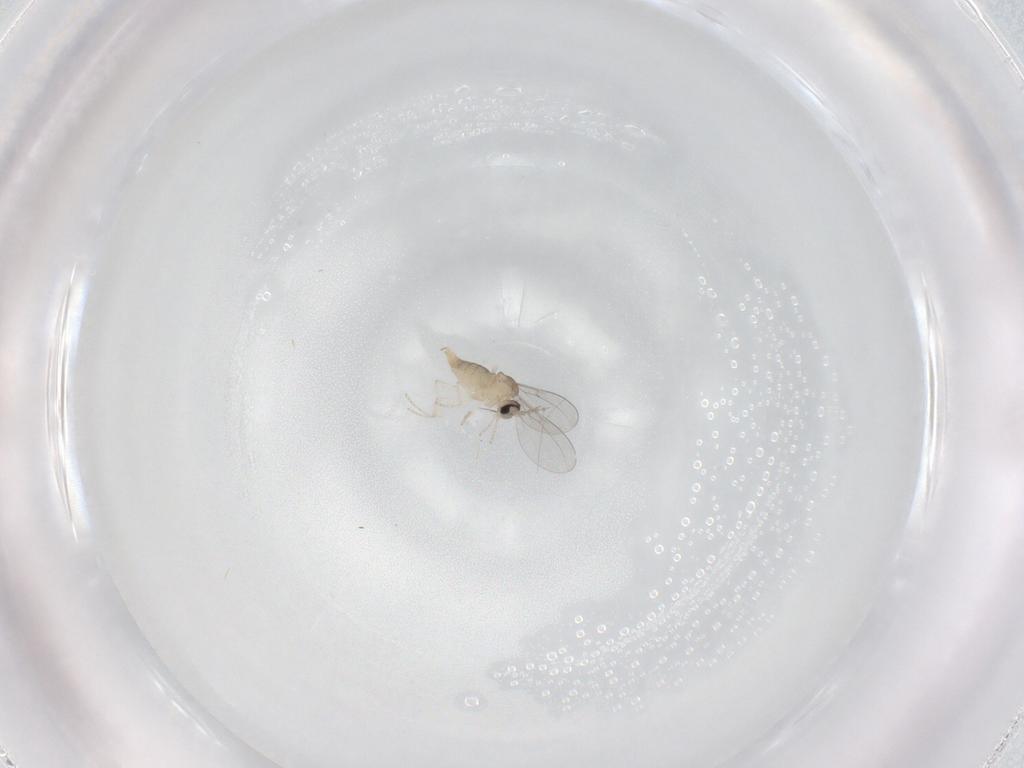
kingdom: Animalia
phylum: Arthropoda
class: Insecta
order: Diptera
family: Cecidomyiidae
